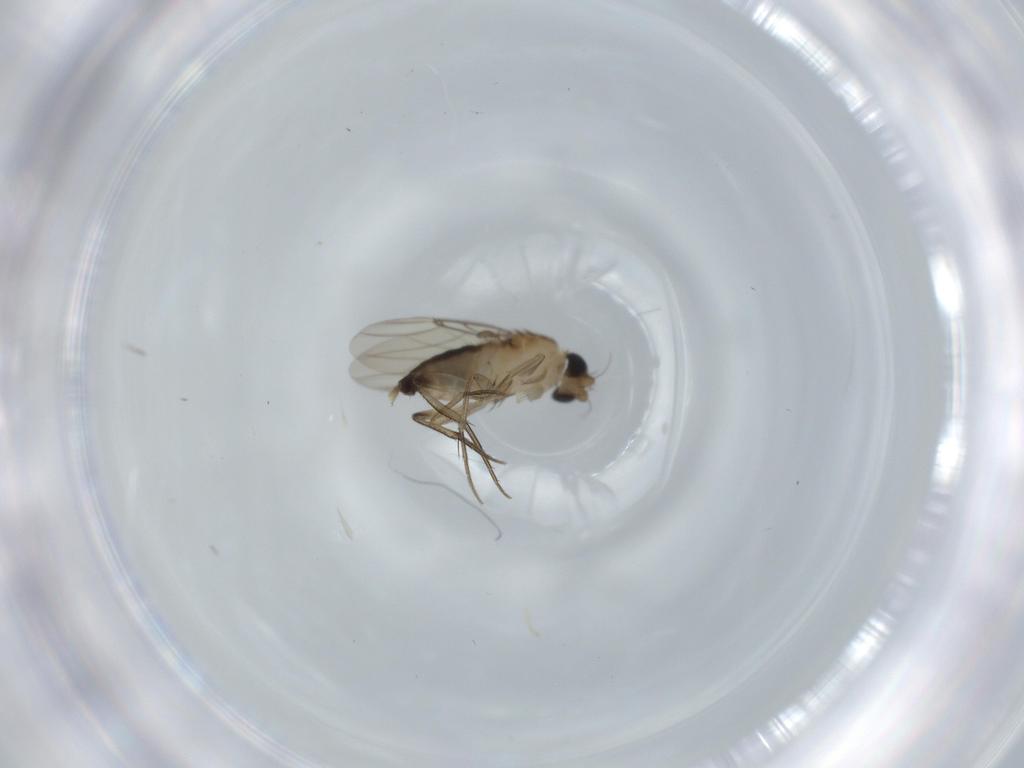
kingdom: Animalia
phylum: Arthropoda
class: Insecta
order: Diptera
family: Phoridae
